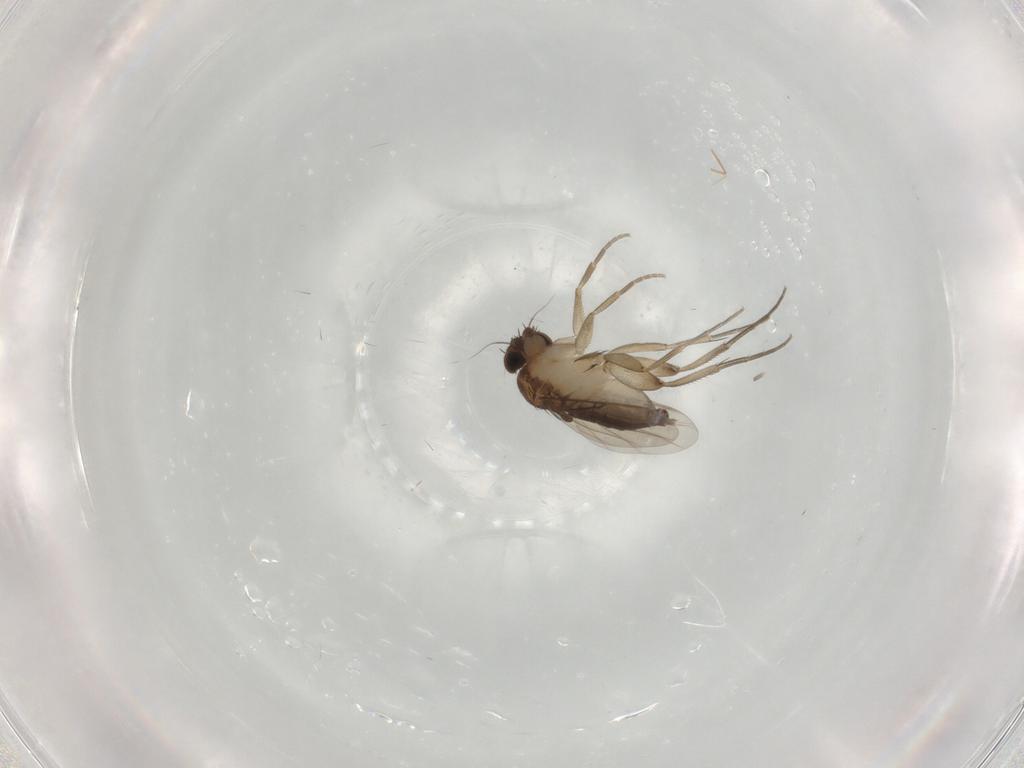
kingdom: Animalia
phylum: Arthropoda
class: Insecta
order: Diptera
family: Phoridae
